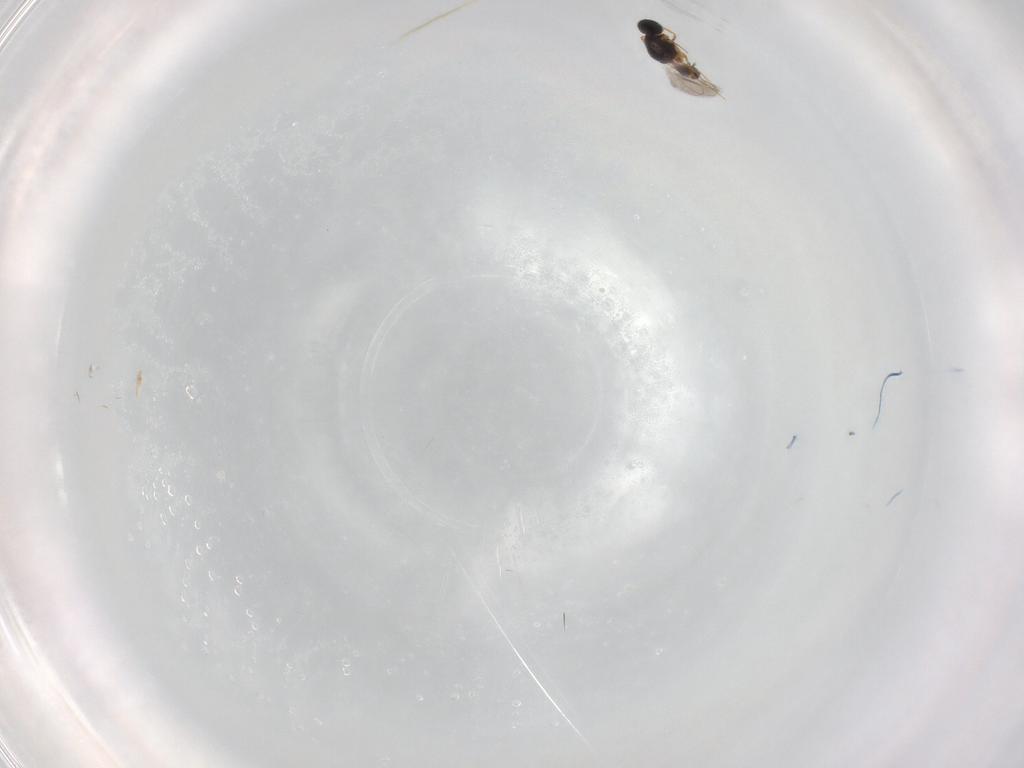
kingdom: Animalia
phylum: Arthropoda
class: Insecta
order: Hymenoptera
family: Platygastridae
